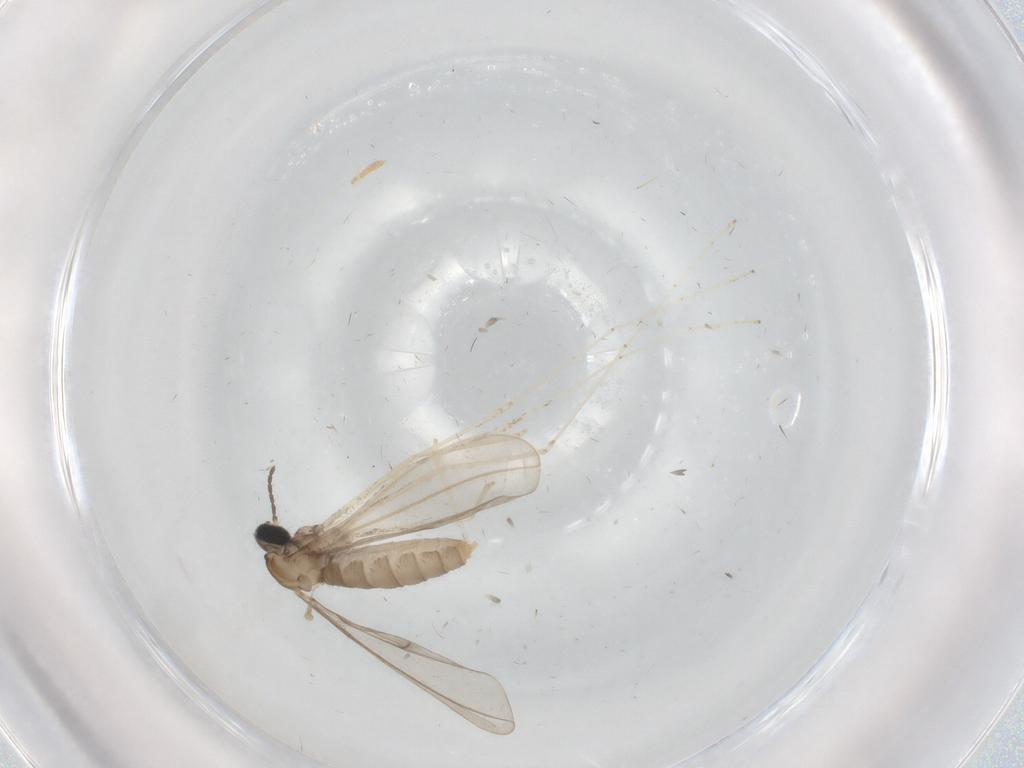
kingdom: Animalia
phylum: Arthropoda
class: Insecta
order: Diptera
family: Cecidomyiidae
